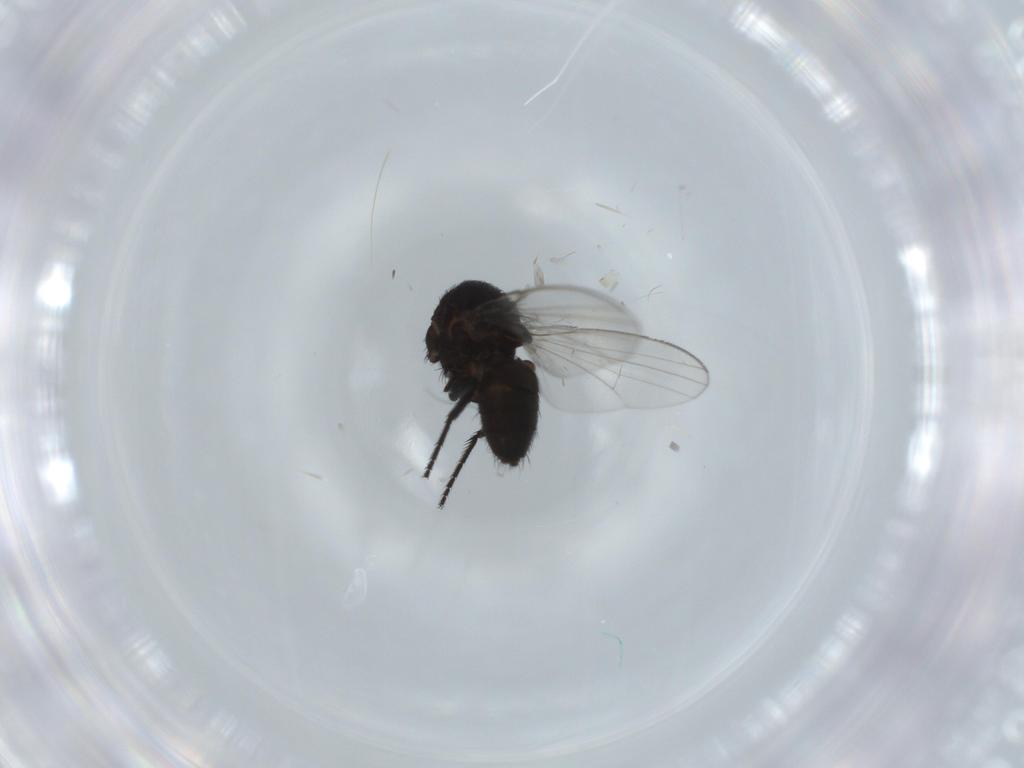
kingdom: Animalia
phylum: Arthropoda
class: Insecta
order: Diptera
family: Milichiidae
